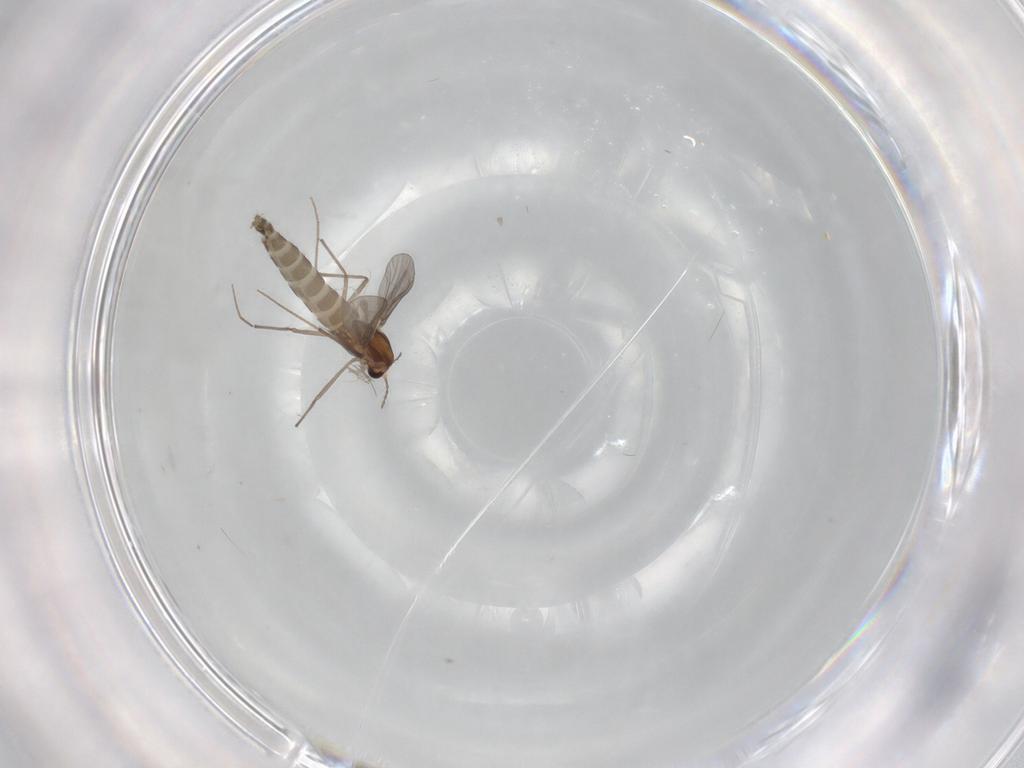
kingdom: Animalia
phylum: Arthropoda
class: Insecta
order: Diptera
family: Chironomidae
